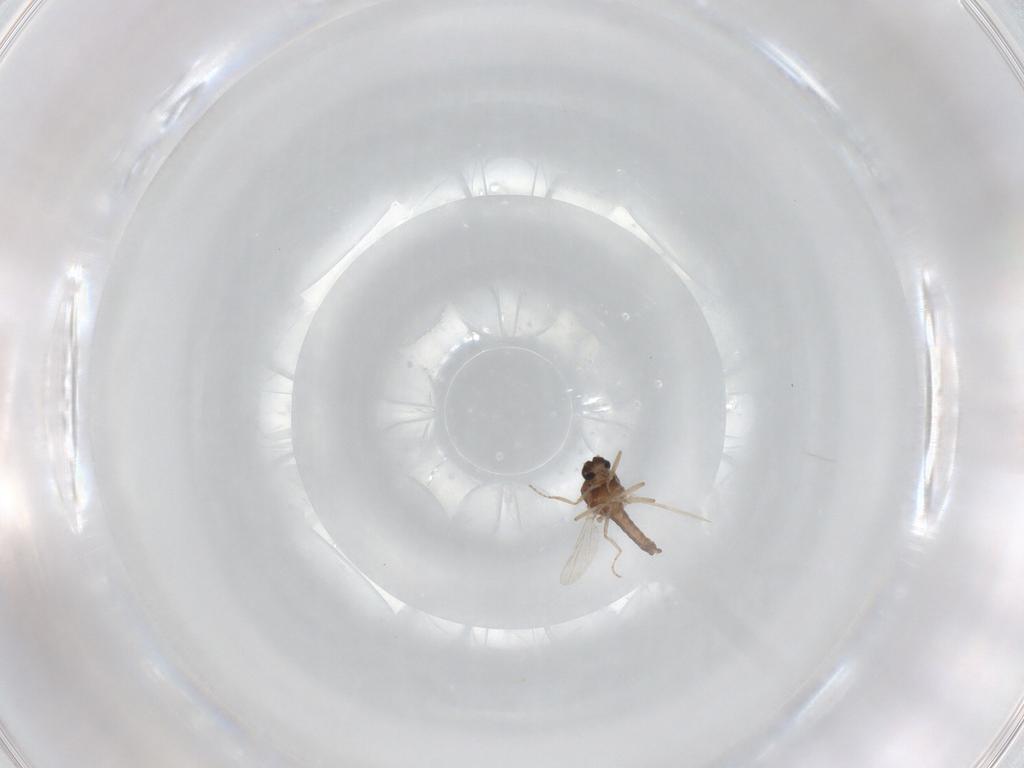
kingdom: Animalia
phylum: Arthropoda
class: Insecta
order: Diptera
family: Ceratopogonidae
